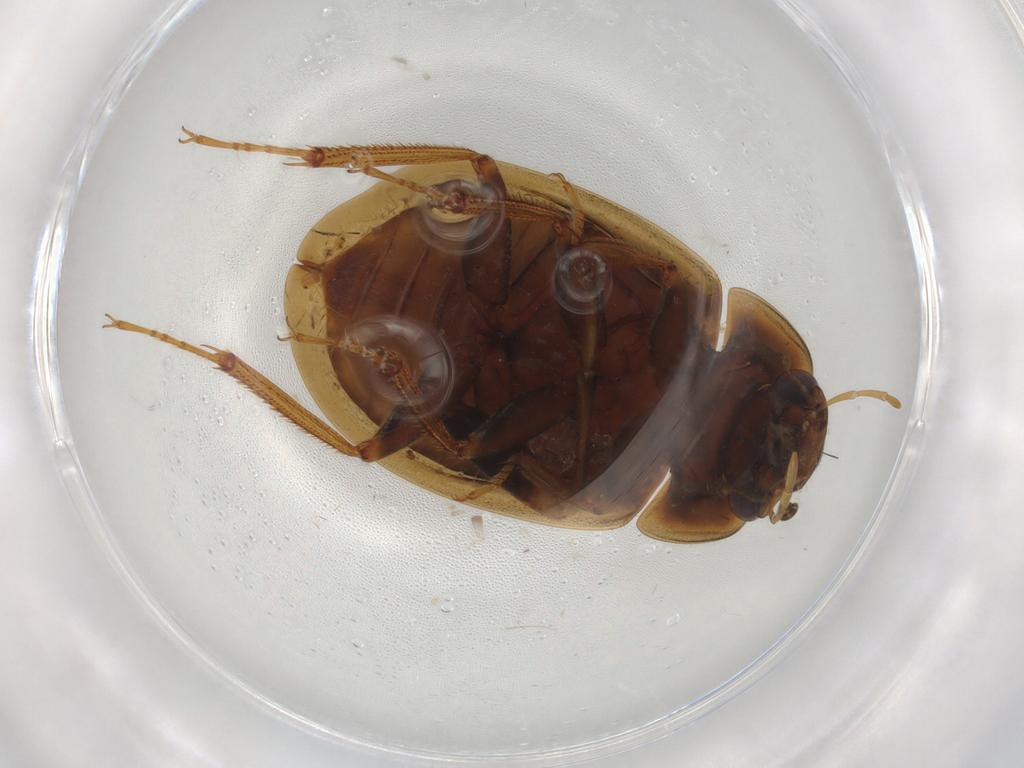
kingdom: Animalia
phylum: Arthropoda
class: Insecta
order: Coleoptera
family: Hydrophilidae
